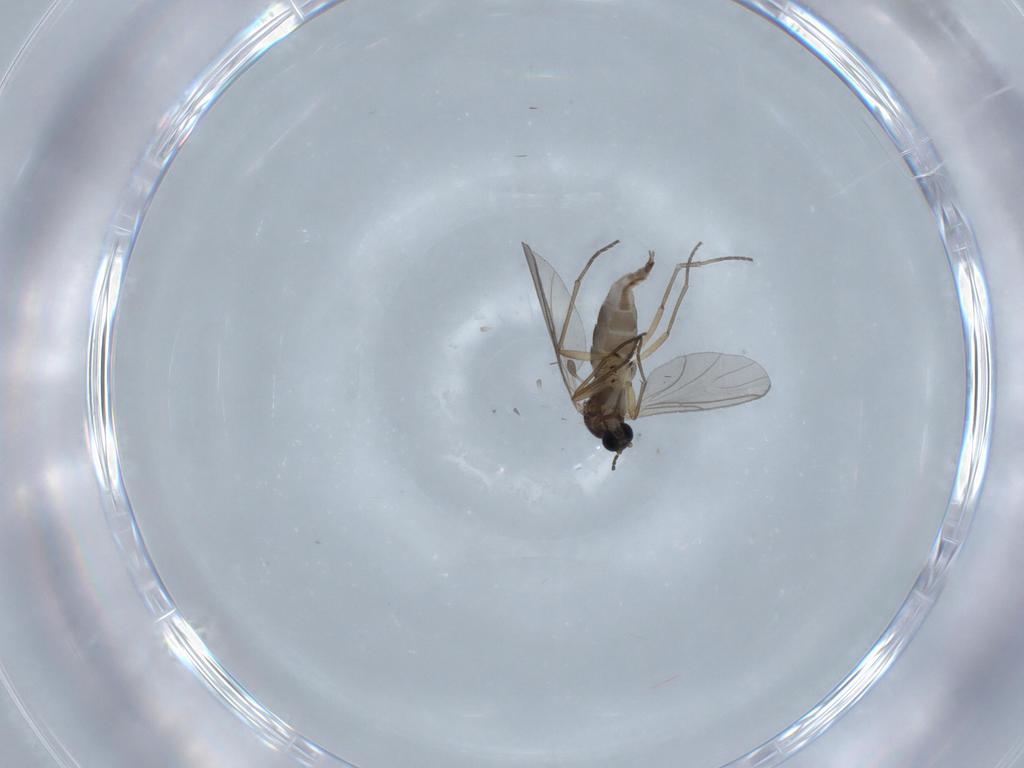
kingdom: Animalia
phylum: Arthropoda
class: Insecta
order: Diptera
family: Sciaridae
